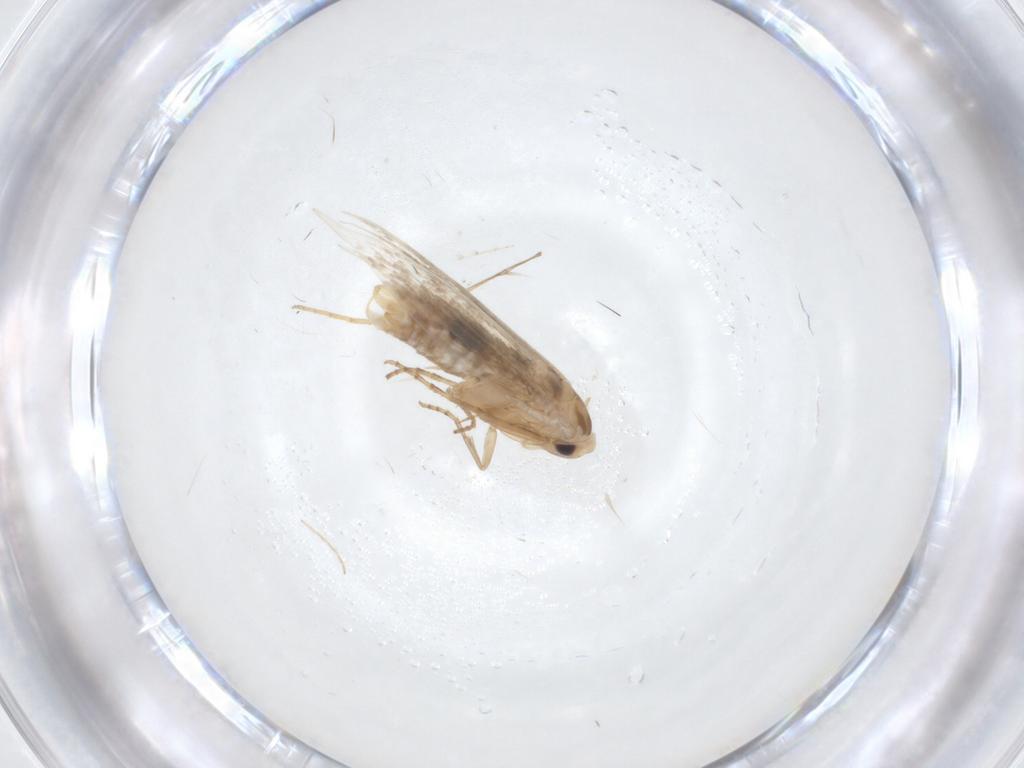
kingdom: Animalia
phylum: Arthropoda
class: Insecta
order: Lepidoptera
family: Bucculatricidae
